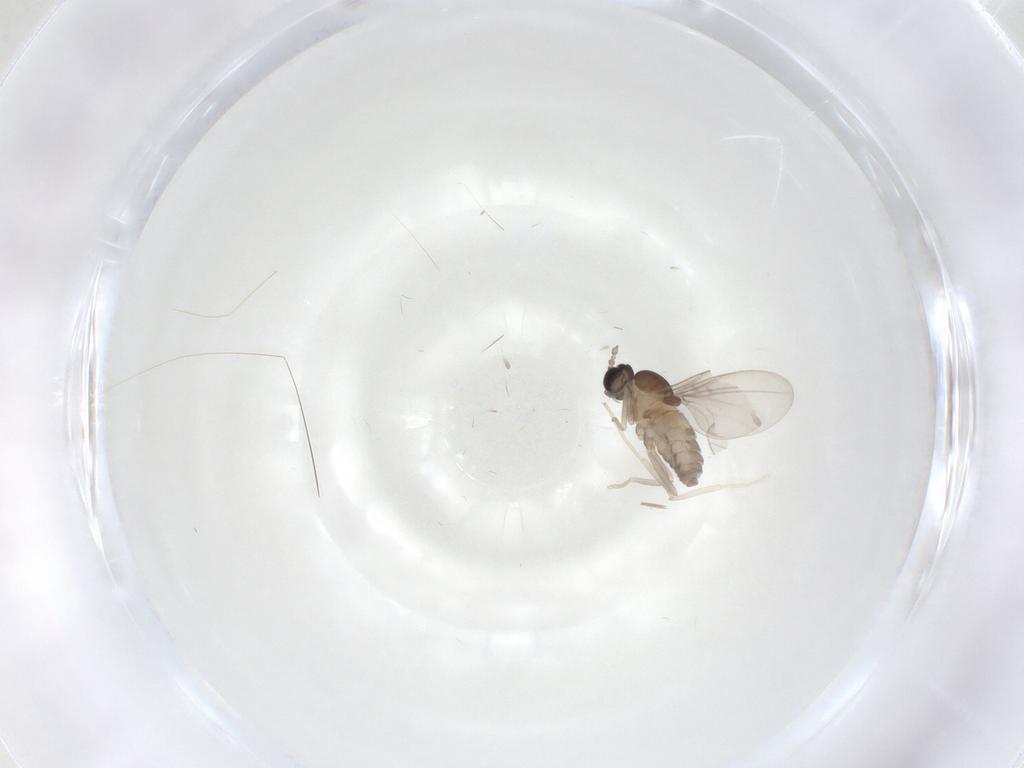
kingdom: Animalia
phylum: Arthropoda
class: Insecta
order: Diptera
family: Cecidomyiidae
